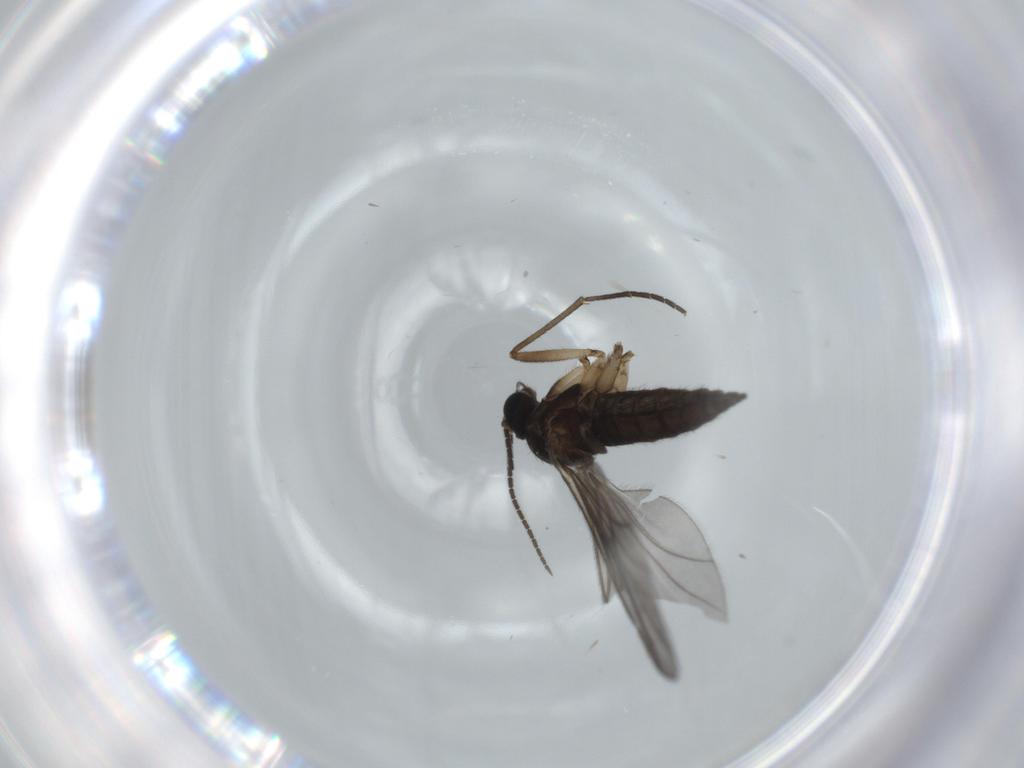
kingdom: Animalia
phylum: Arthropoda
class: Insecta
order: Diptera
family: Sciaridae
